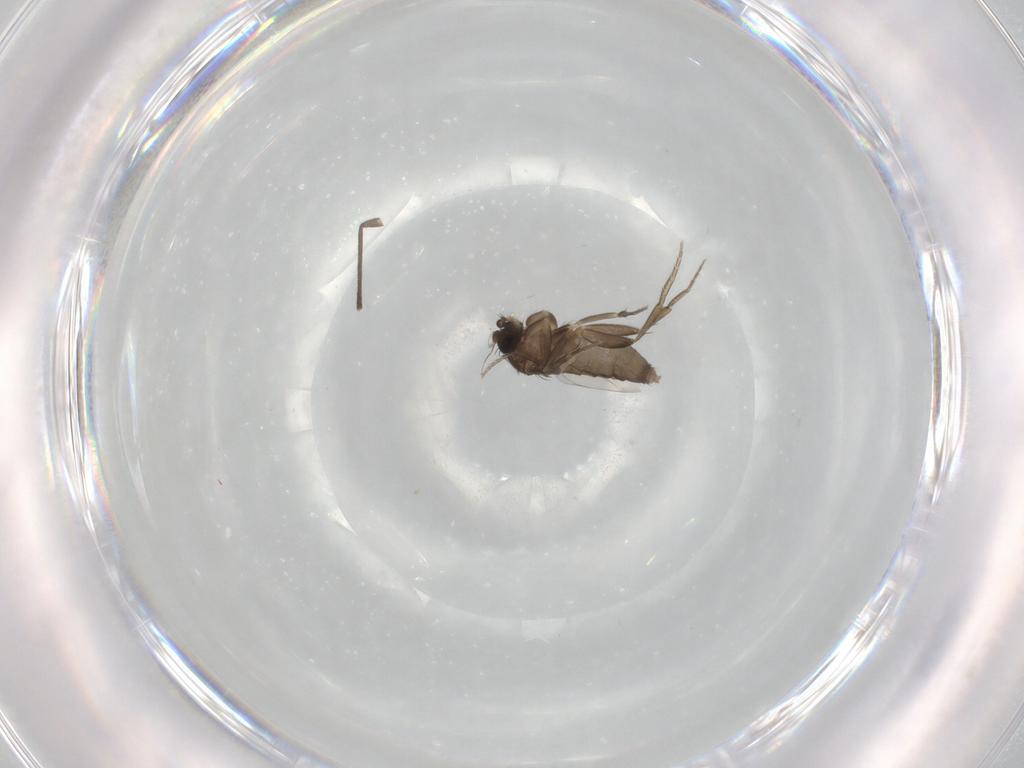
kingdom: Animalia
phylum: Arthropoda
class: Insecta
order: Diptera
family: Phoridae
